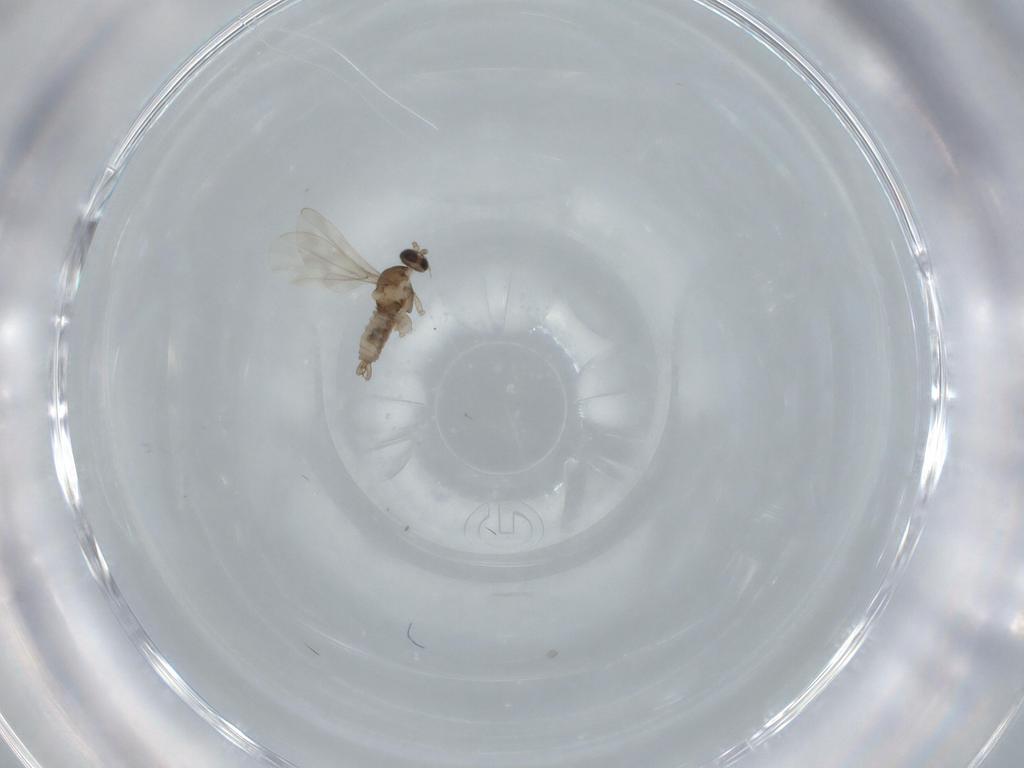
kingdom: Animalia
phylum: Arthropoda
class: Insecta
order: Diptera
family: Cecidomyiidae
